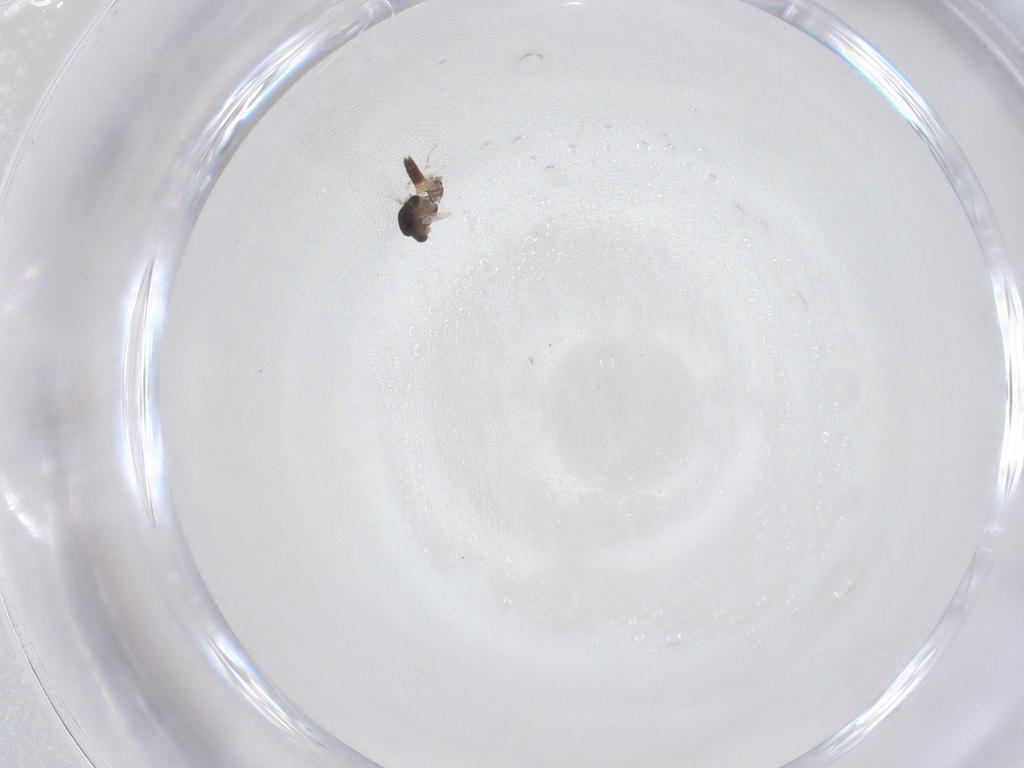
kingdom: Animalia
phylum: Arthropoda
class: Insecta
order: Diptera
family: Chironomidae
